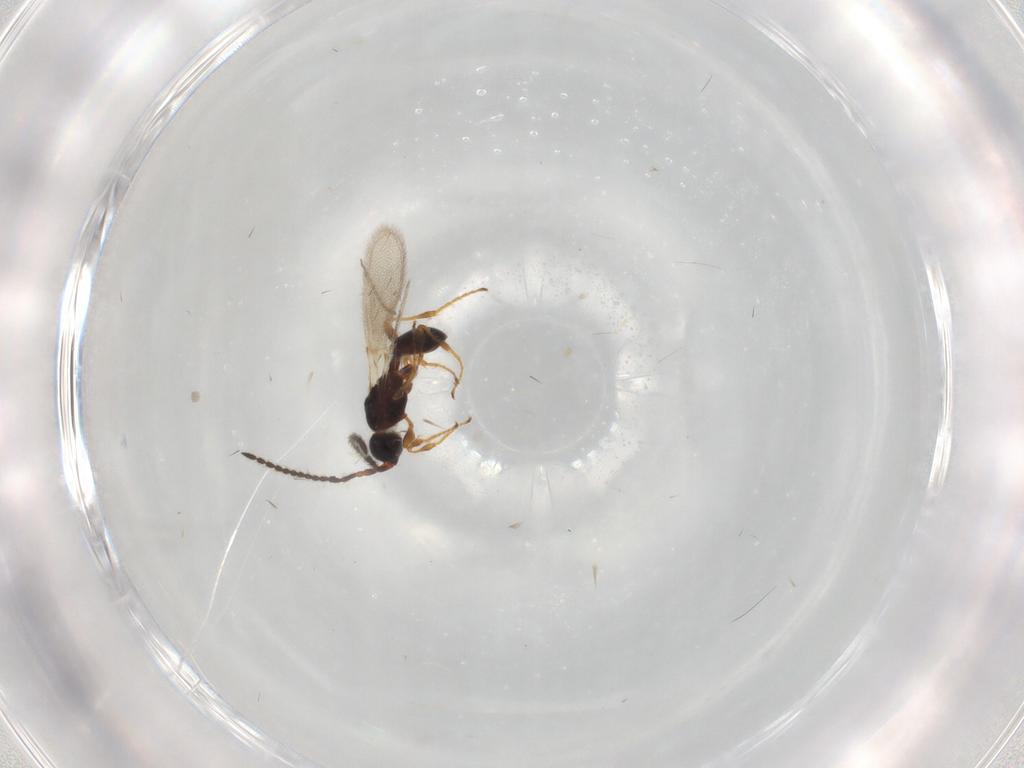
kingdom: Animalia
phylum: Arthropoda
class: Insecta
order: Hymenoptera
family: Diapriidae
